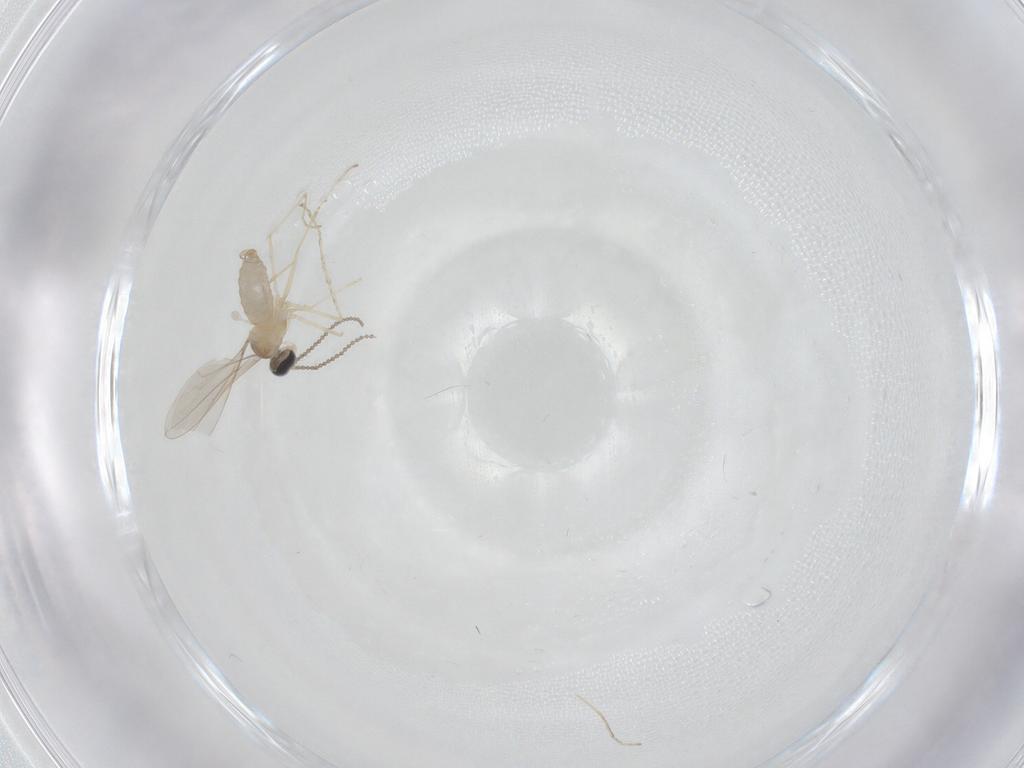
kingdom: Animalia
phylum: Arthropoda
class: Insecta
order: Diptera
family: Cecidomyiidae
